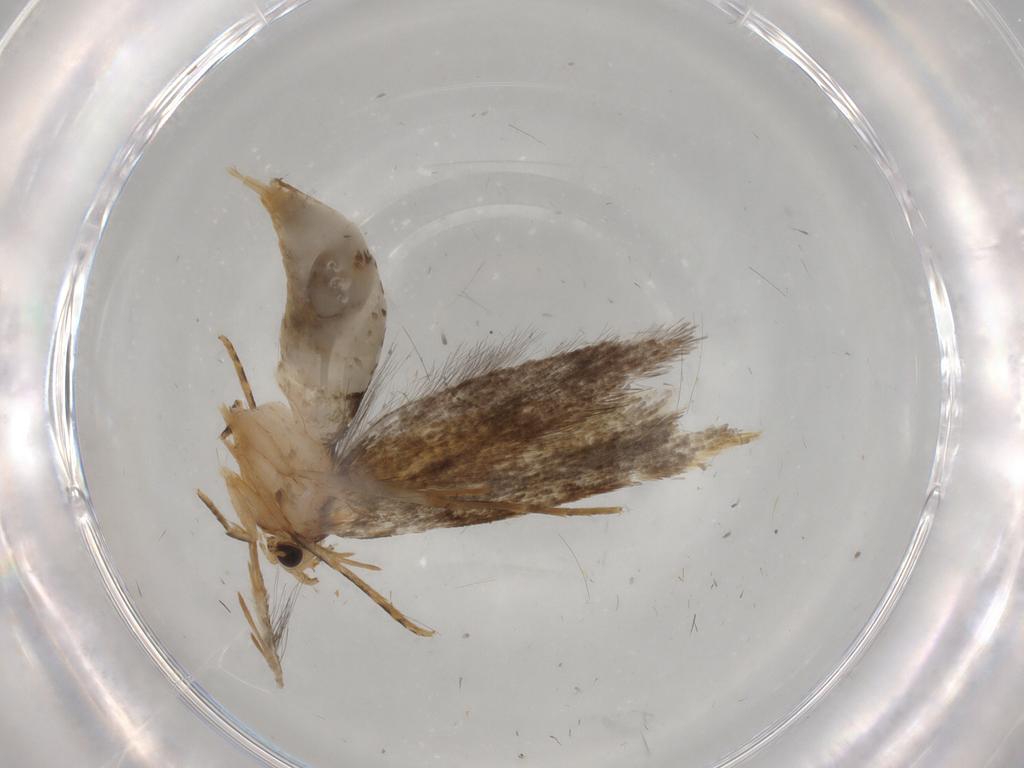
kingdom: Animalia
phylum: Arthropoda
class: Insecta
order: Lepidoptera
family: Tineidae
